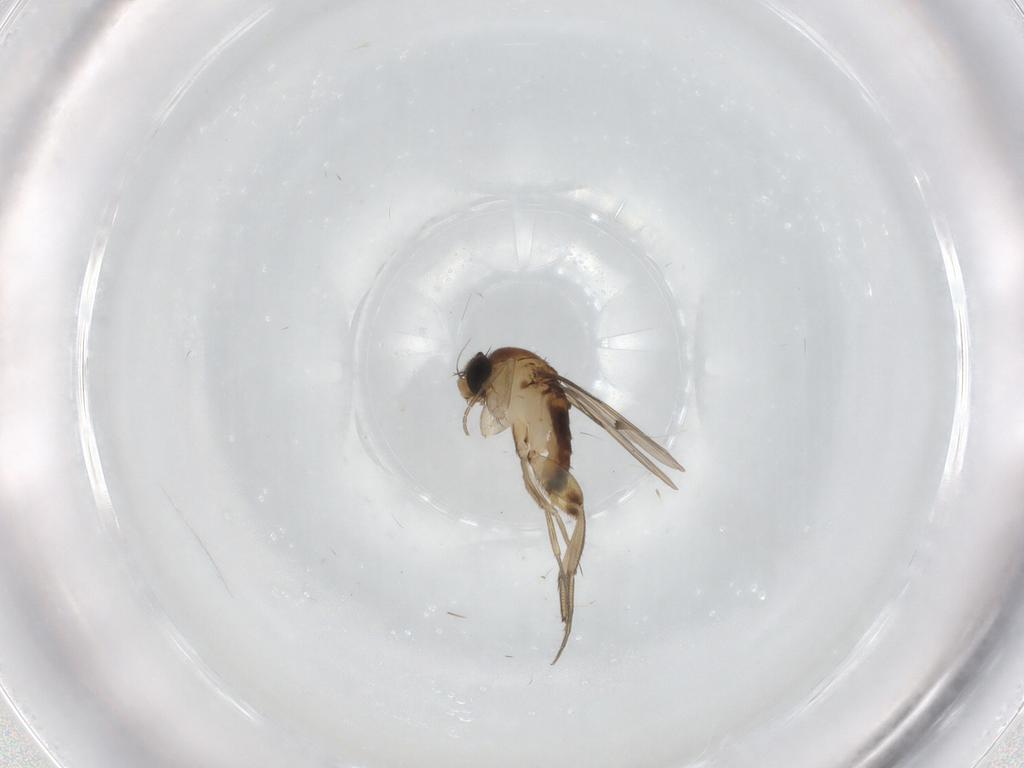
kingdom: Animalia
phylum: Arthropoda
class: Insecta
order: Diptera
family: Phoridae
